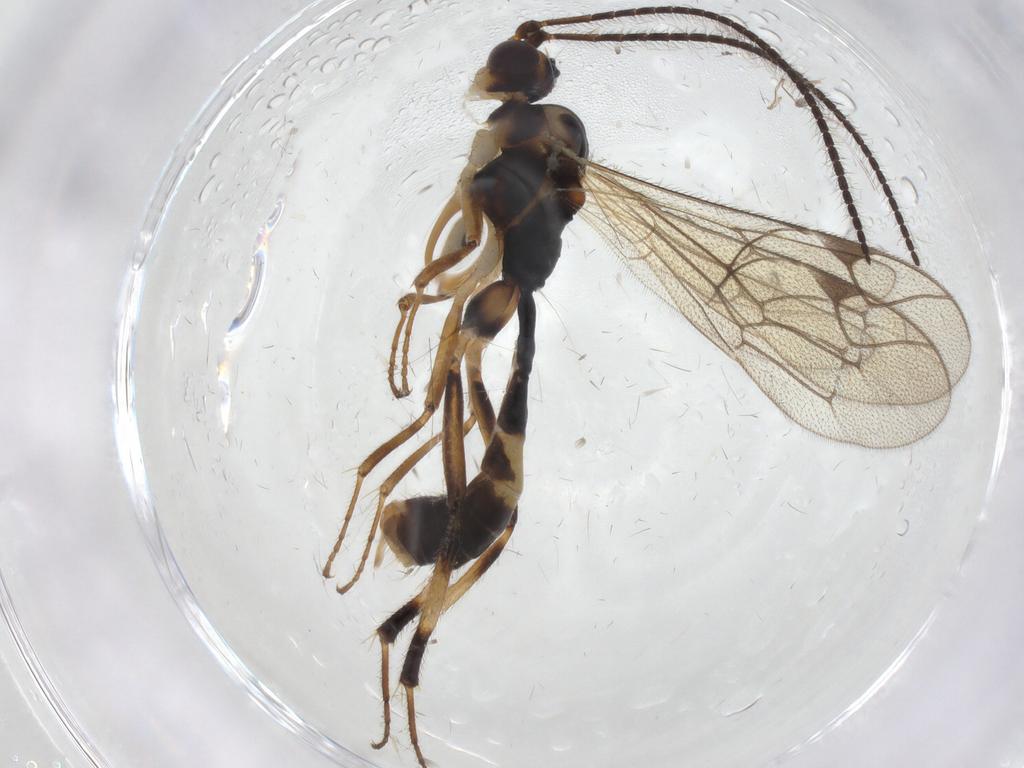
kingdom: Animalia
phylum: Arthropoda
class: Insecta
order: Hymenoptera
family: Ichneumonidae
